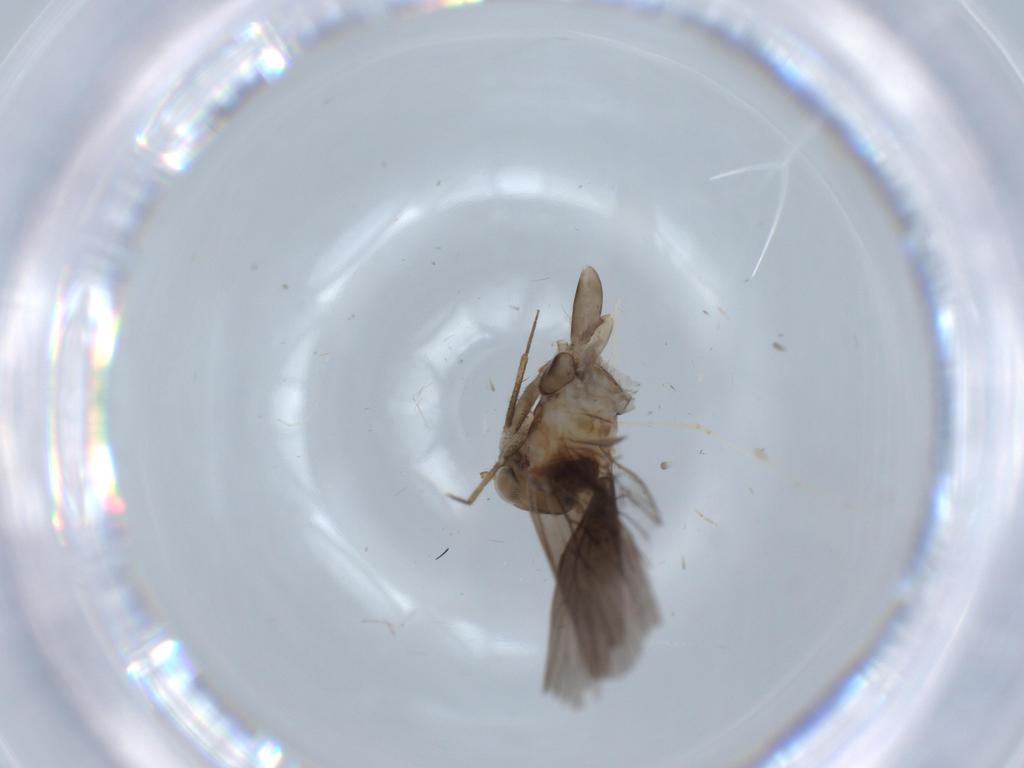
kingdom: Animalia
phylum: Arthropoda
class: Insecta
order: Psocodea
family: Lepidopsocidae
